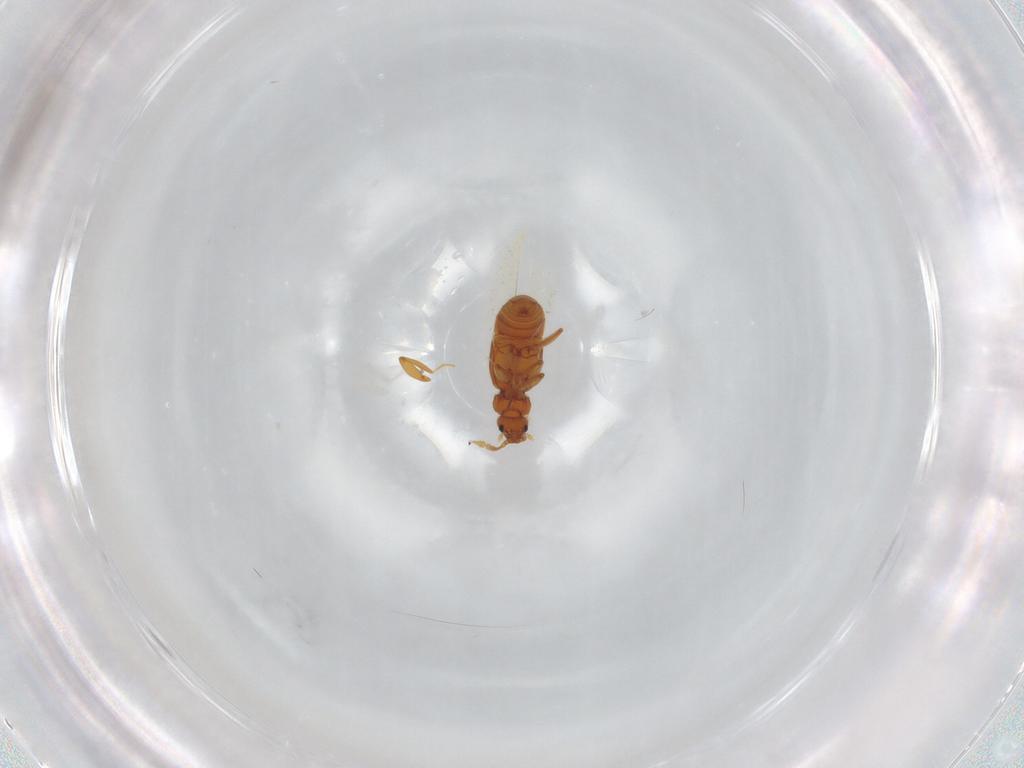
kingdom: Animalia
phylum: Arthropoda
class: Insecta
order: Coleoptera
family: Staphylinidae
